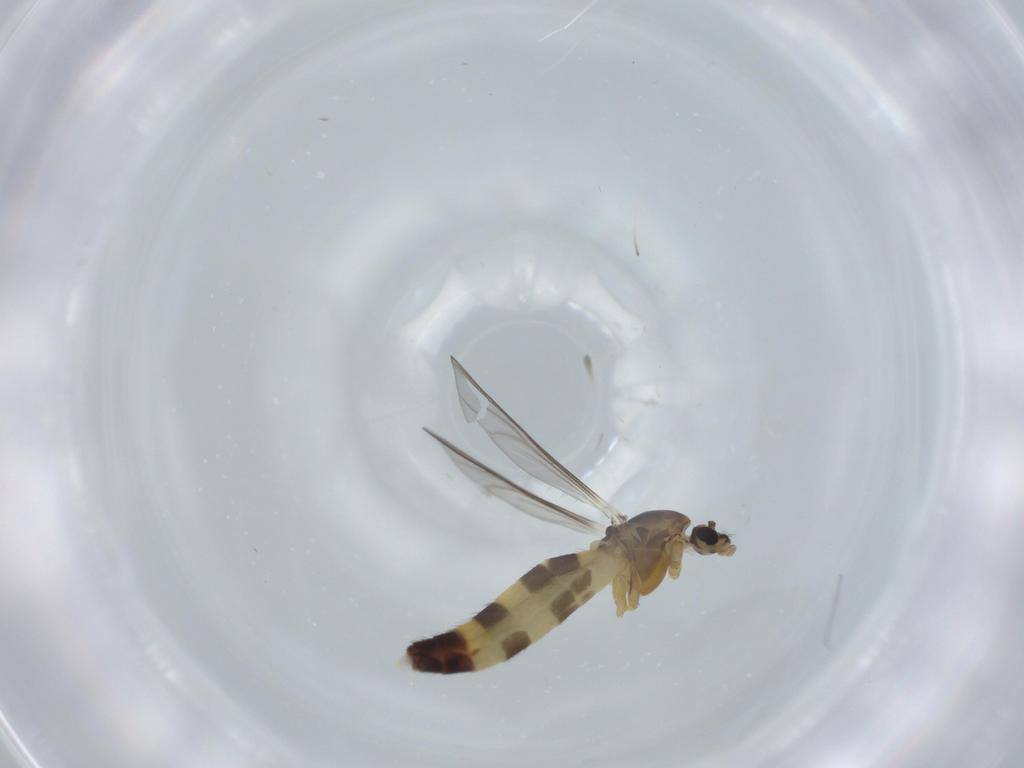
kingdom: Animalia
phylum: Arthropoda
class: Insecta
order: Diptera
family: Chironomidae
